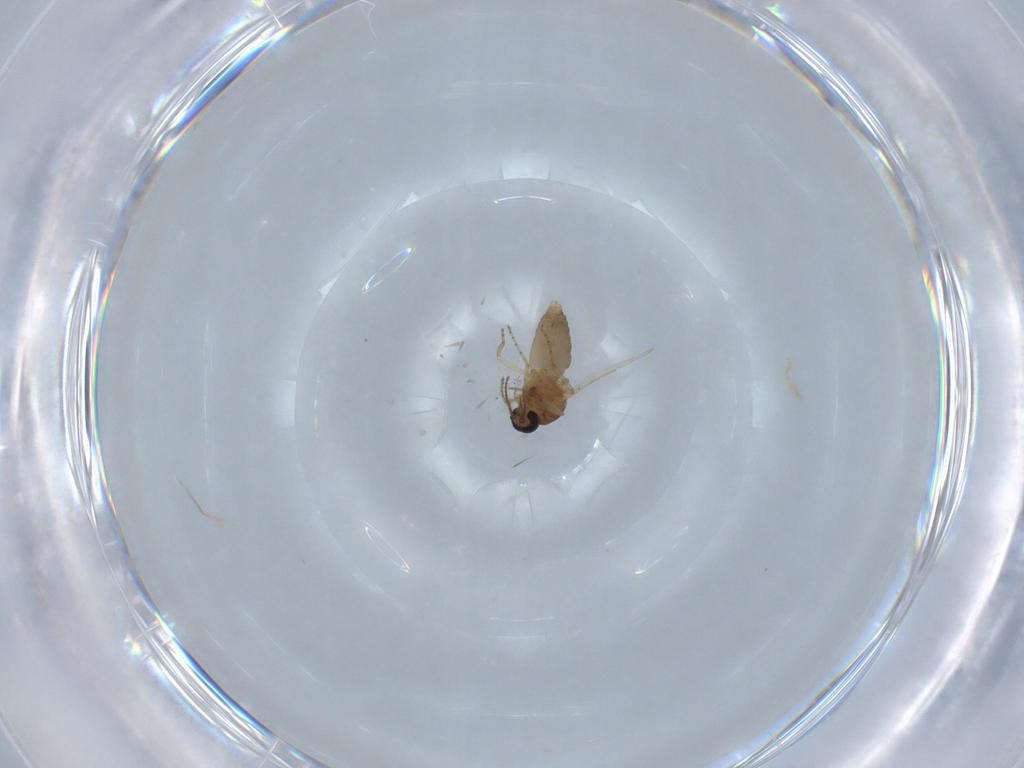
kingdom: Animalia
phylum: Arthropoda
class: Insecta
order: Diptera
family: Ceratopogonidae
